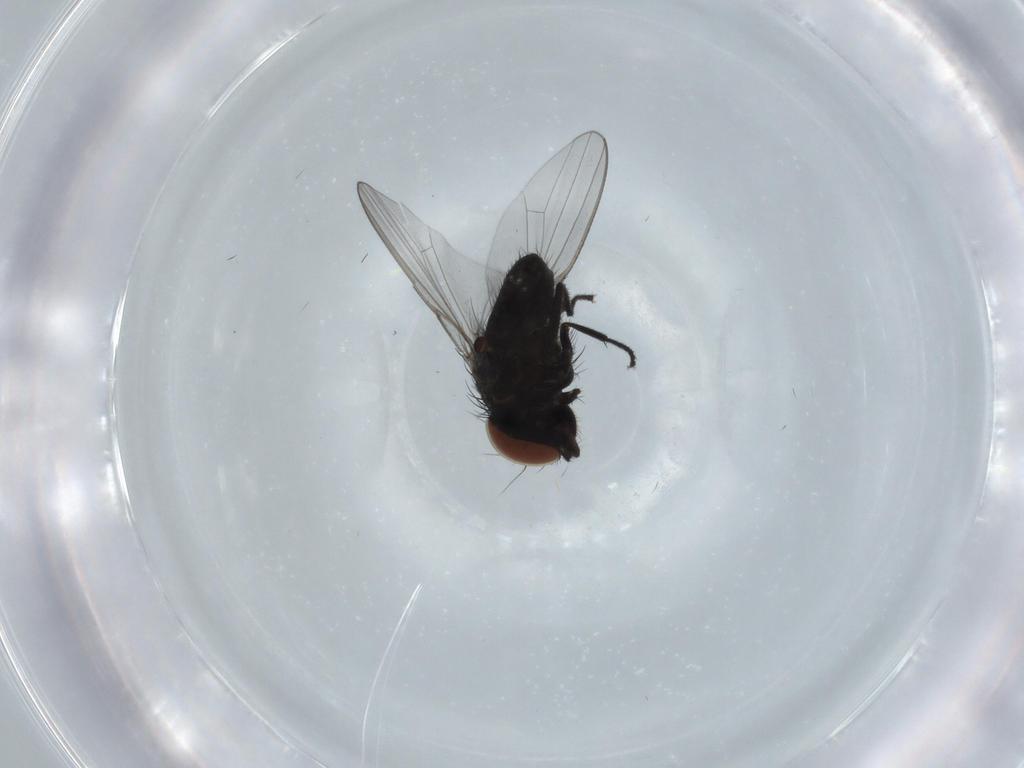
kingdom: Animalia
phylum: Arthropoda
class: Insecta
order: Diptera
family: Milichiidae
